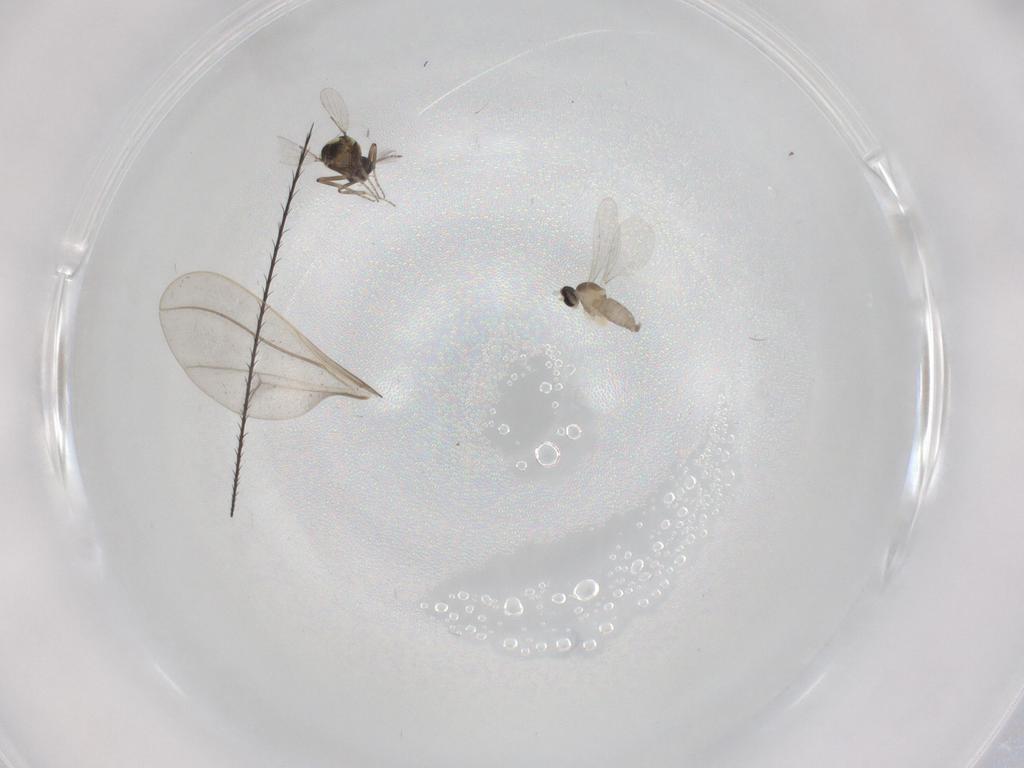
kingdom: Animalia
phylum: Arthropoda
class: Insecta
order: Diptera
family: Ceratopogonidae
